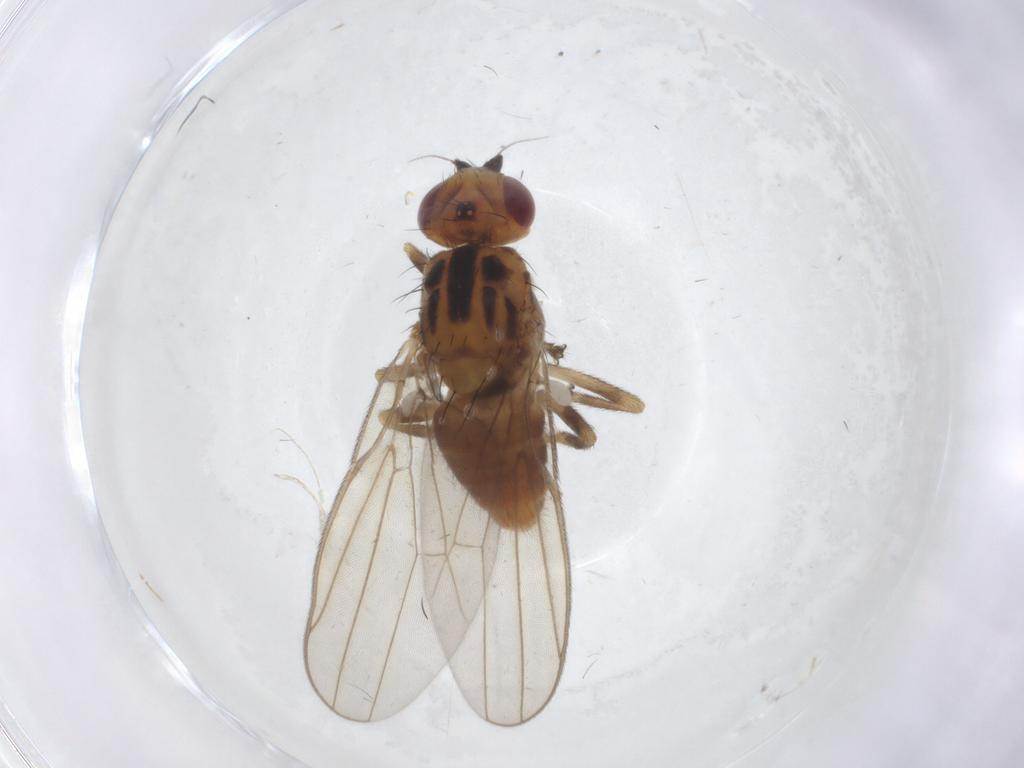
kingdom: Animalia
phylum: Arthropoda
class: Insecta
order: Diptera
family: Chloropidae
